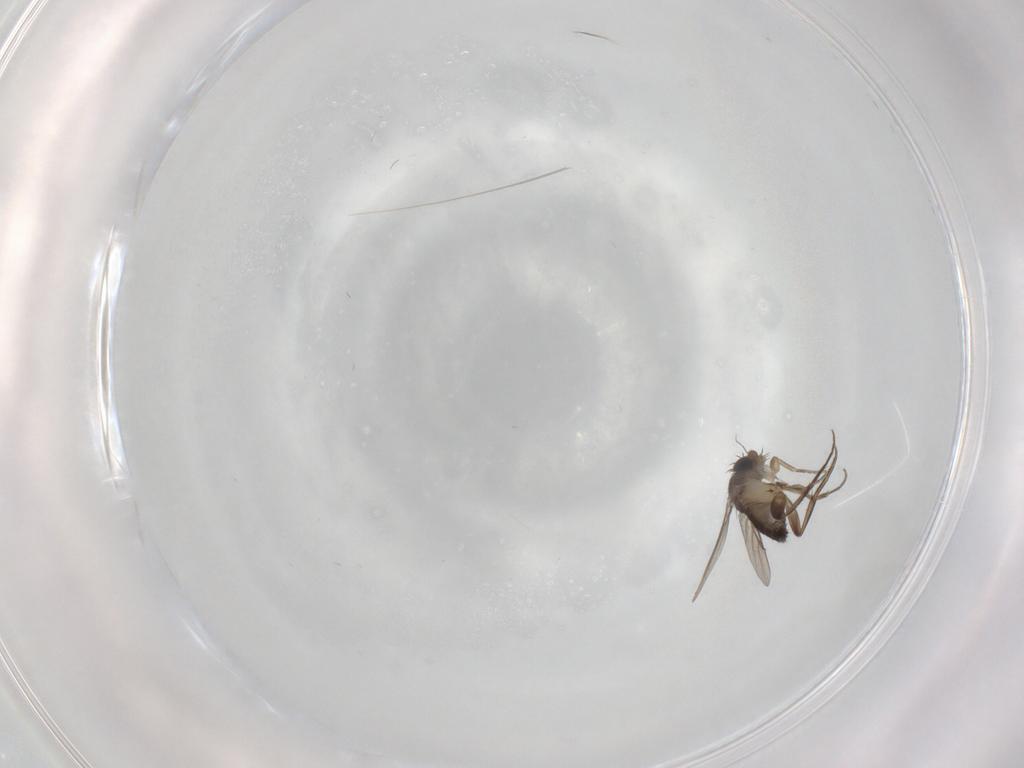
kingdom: Animalia
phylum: Arthropoda
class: Insecta
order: Diptera
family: Phoridae
